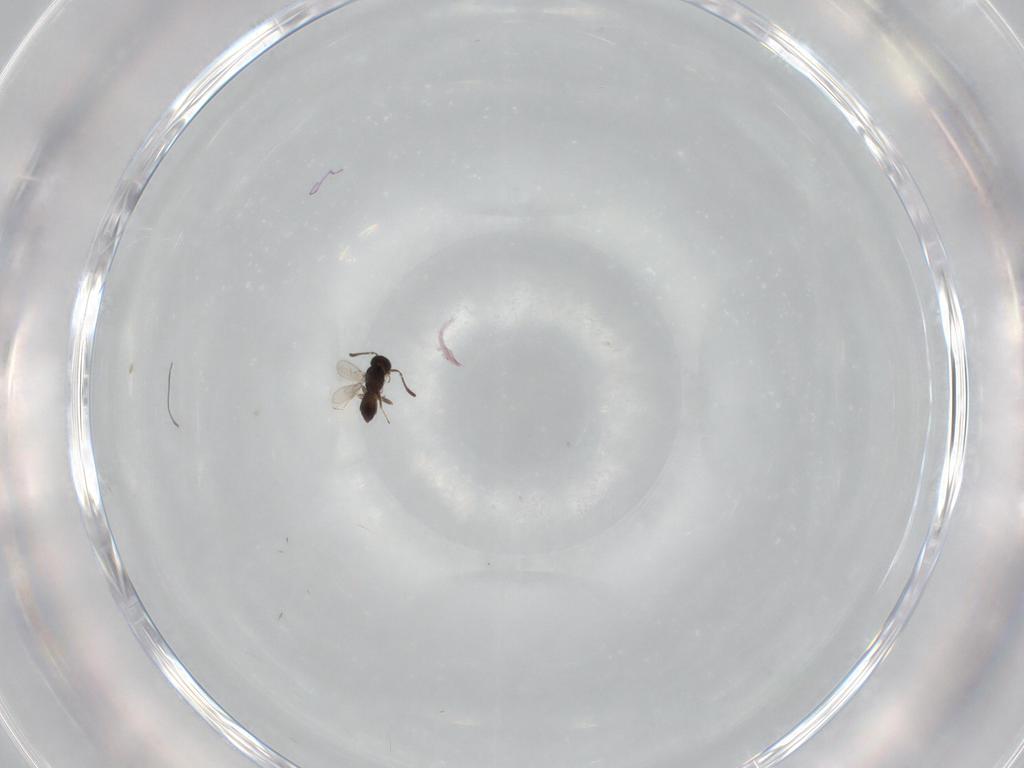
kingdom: Animalia
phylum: Arthropoda
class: Insecta
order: Hymenoptera
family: Scelionidae
